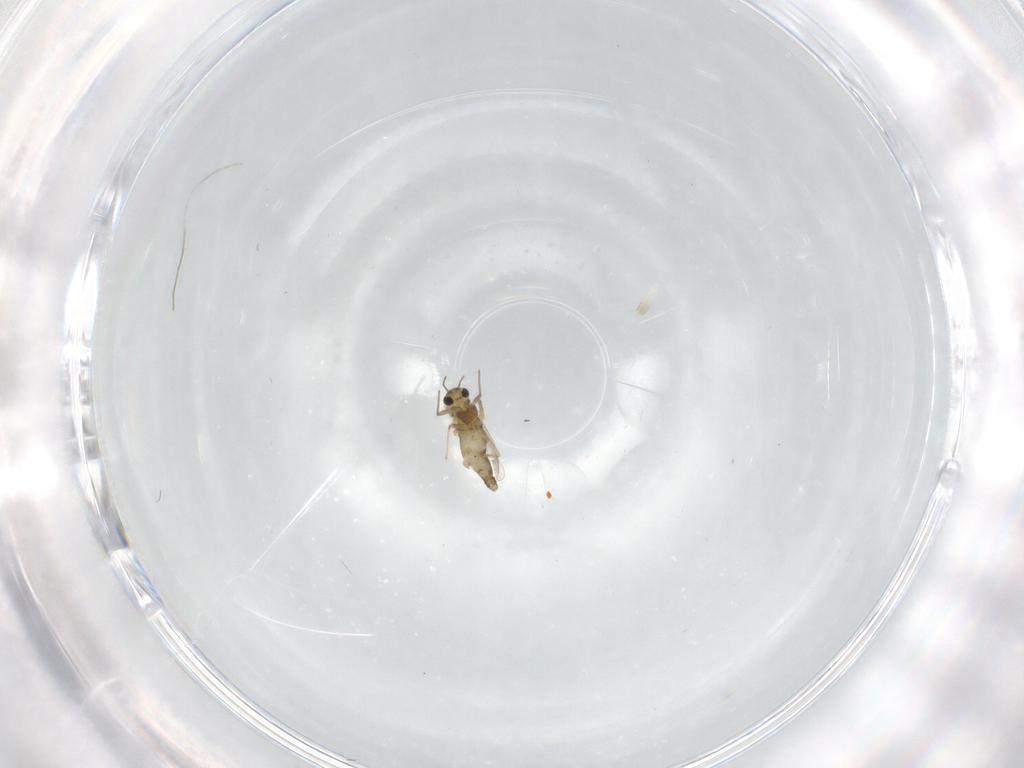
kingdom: Animalia
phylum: Arthropoda
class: Insecta
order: Diptera
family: Chironomidae
